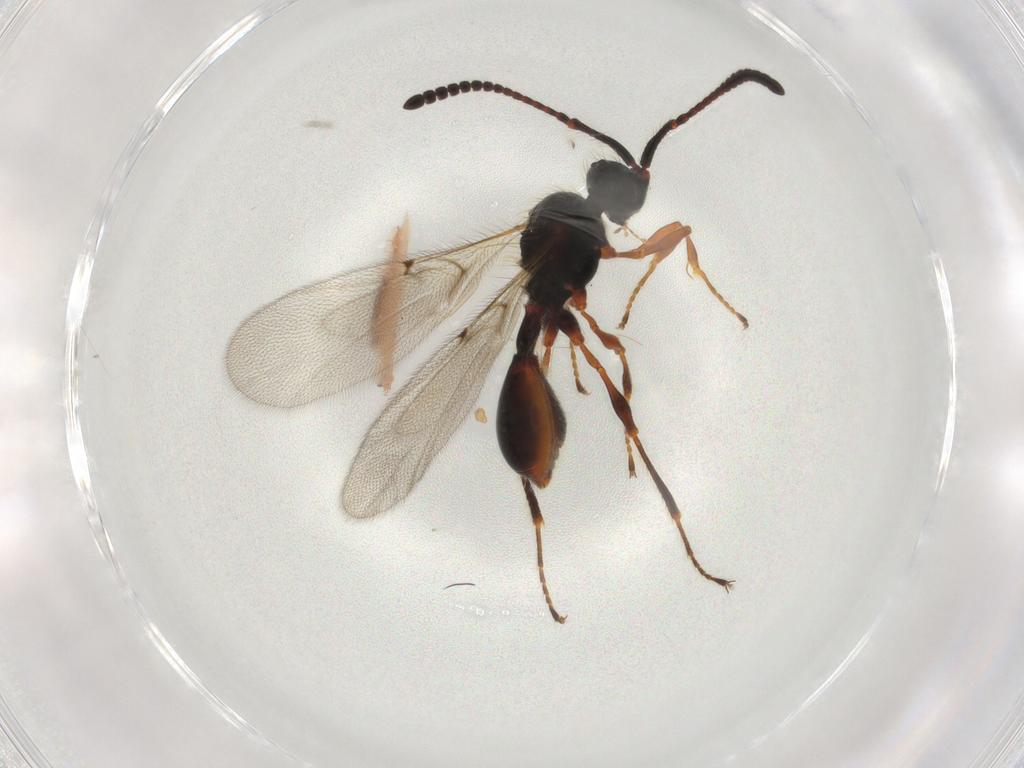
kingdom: Animalia
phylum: Arthropoda
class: Insecta
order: Hymenoptera
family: Diapriidae
